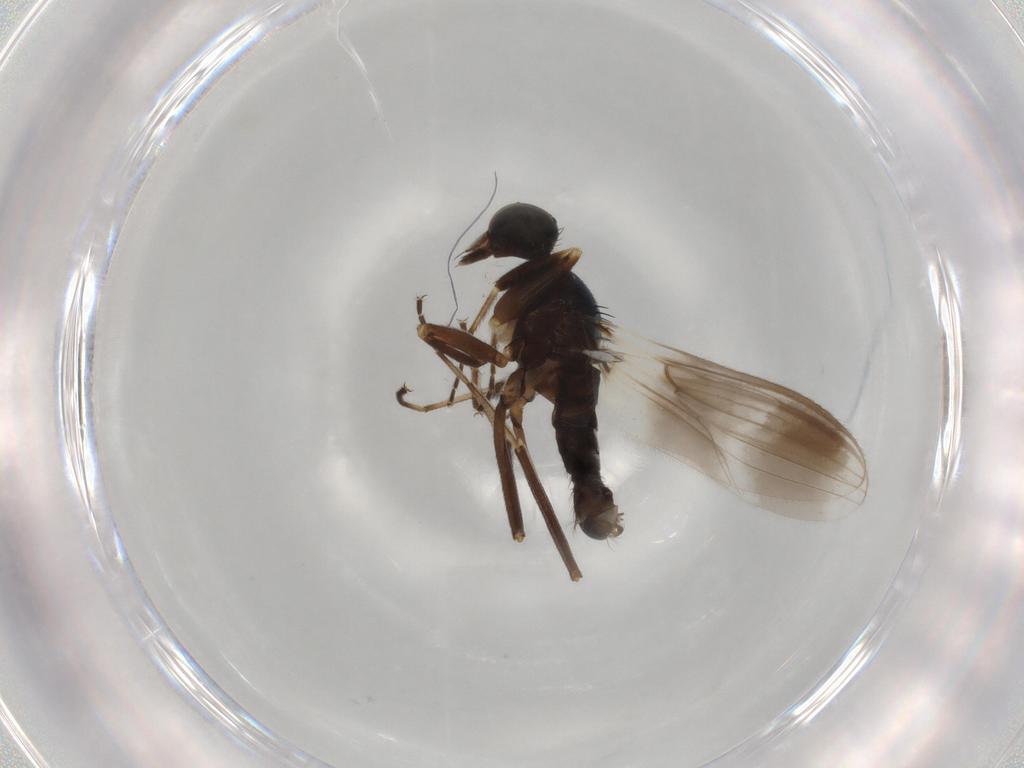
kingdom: Animalia
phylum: Arthropoda
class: Insecta
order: Diptera
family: Hybotidae
